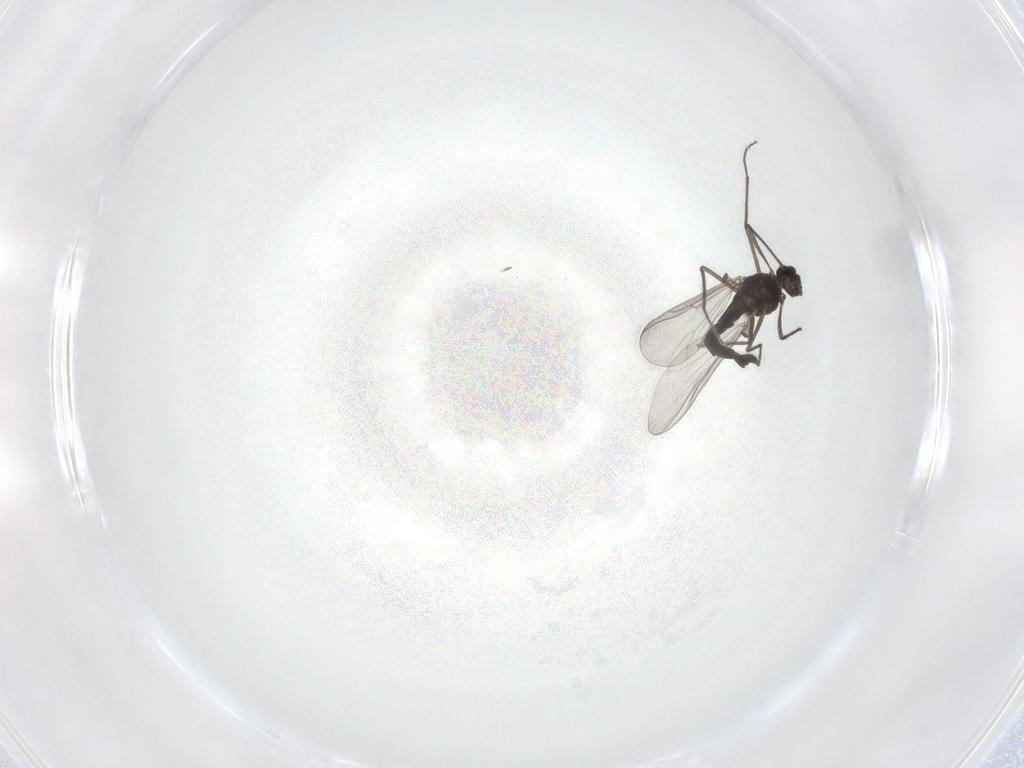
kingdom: Animalia
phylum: Arthropoda
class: Insecta
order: Diptera
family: Chironomidae
